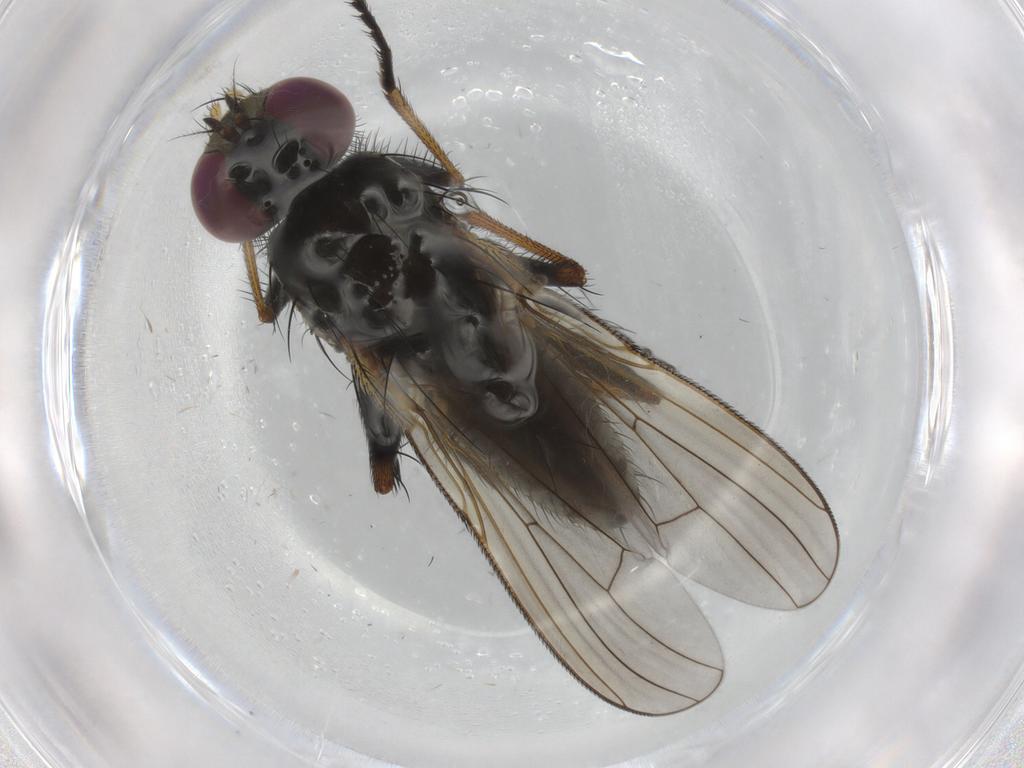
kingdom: Animalia
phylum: Arthropoda
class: Insecta
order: Diptera
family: Muscidae
